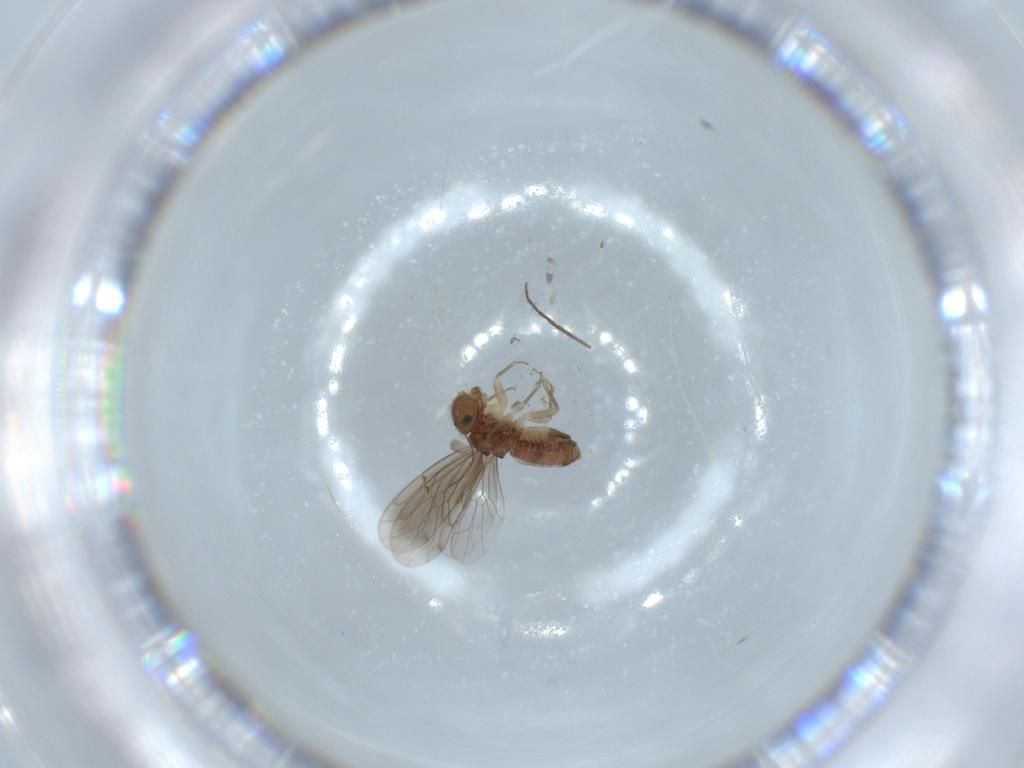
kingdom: Animalia
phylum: Arthropoda
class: Insecta
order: Psocodea
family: Ectopsocidae
